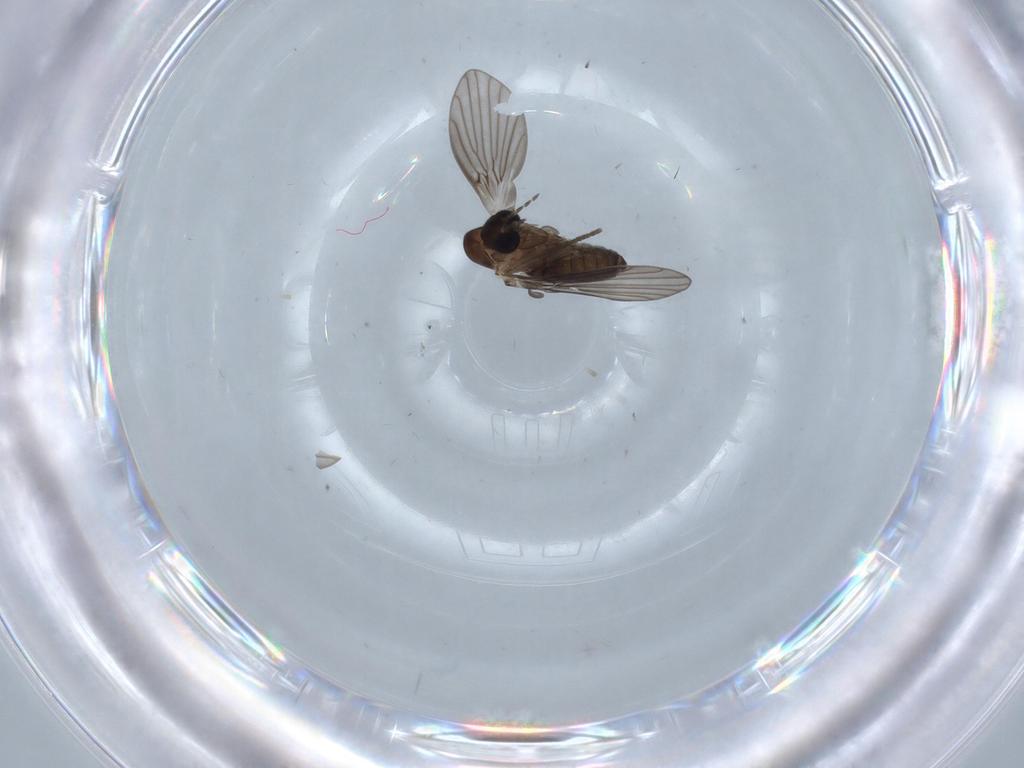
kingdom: Animalia
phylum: Arthropoda
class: Insecta
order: Diptera
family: Psychodidae
